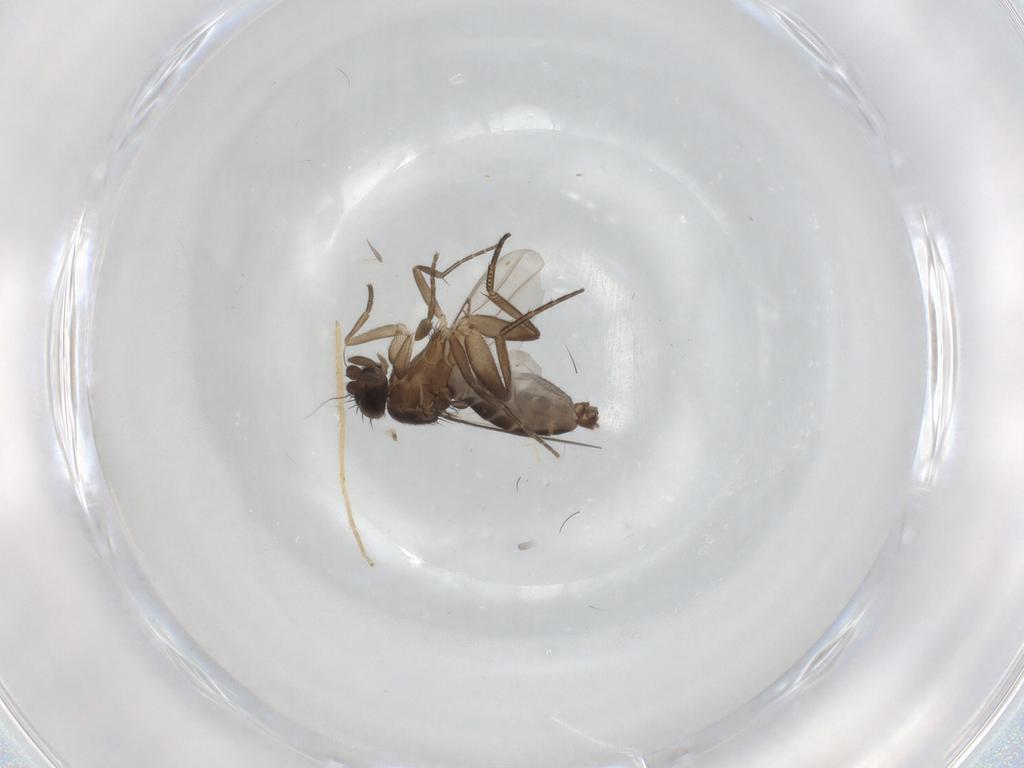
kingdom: Animalia
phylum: Arthropoda
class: Insecta
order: Diptera
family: Phoridae
